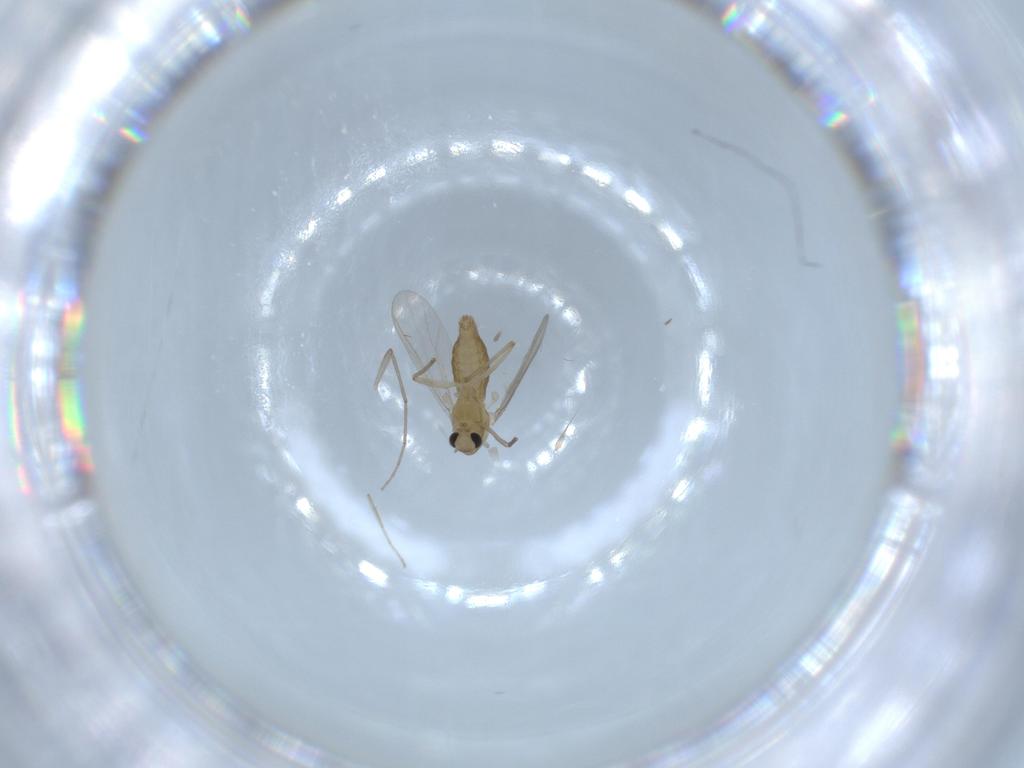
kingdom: Animalia
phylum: Arthropoda
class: Insecta
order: Diptera
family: Chironomidae
